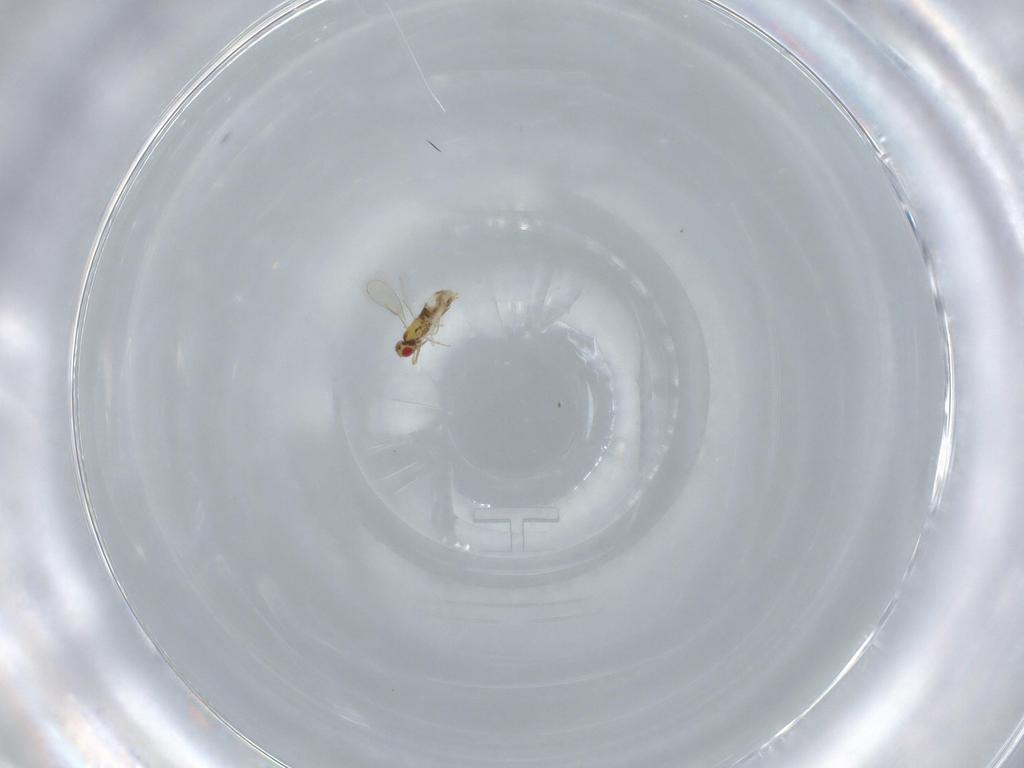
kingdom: Animalia
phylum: Arthropoda
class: Insecta
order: Hymenoptera
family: Aphelinidae
